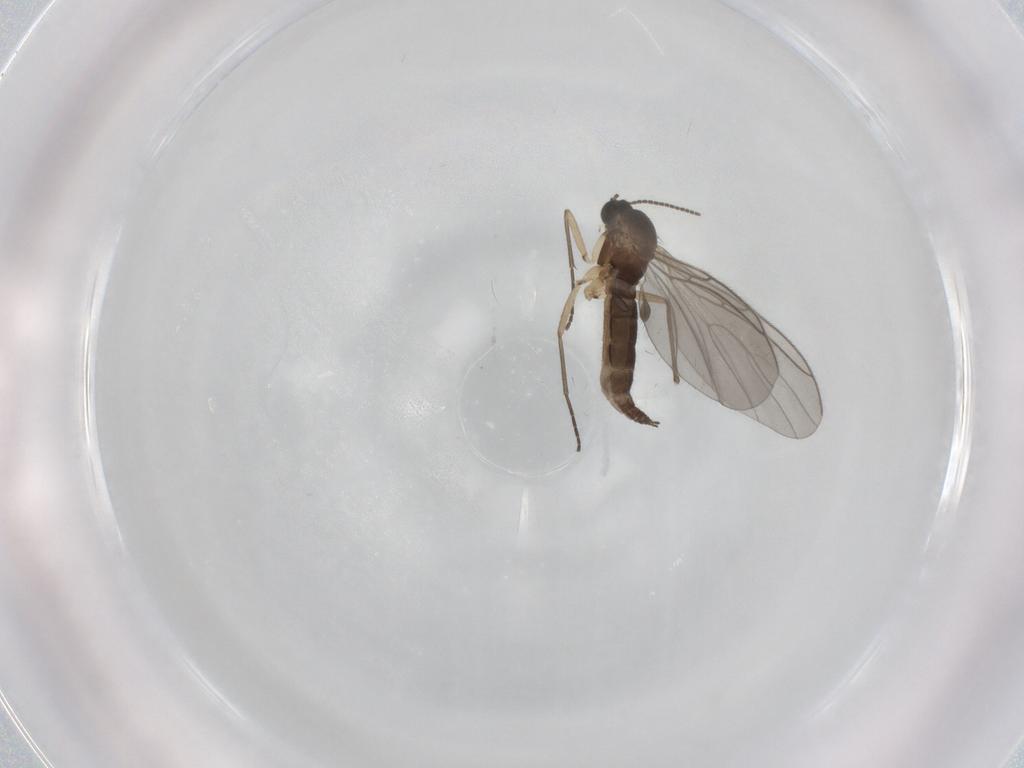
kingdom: Animalia
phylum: Arthropoda
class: Insecta
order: Diptera
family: Sciaridae
